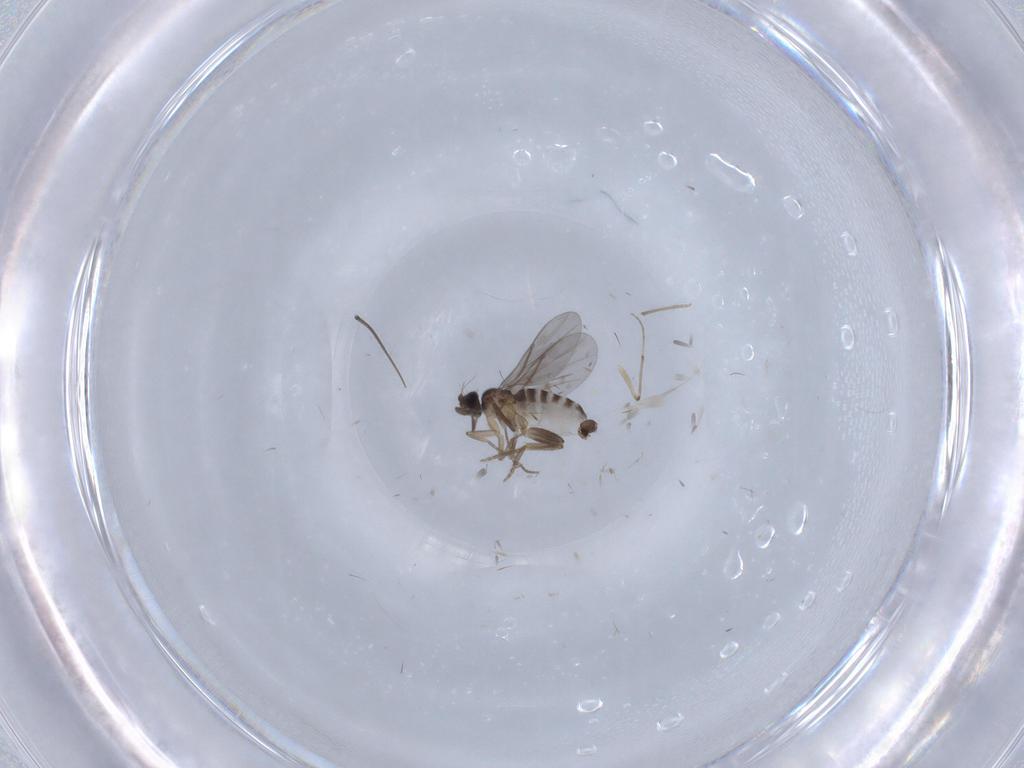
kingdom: Animalia
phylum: Arthropoda
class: Insecta
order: Diptera
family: Chironomidae
